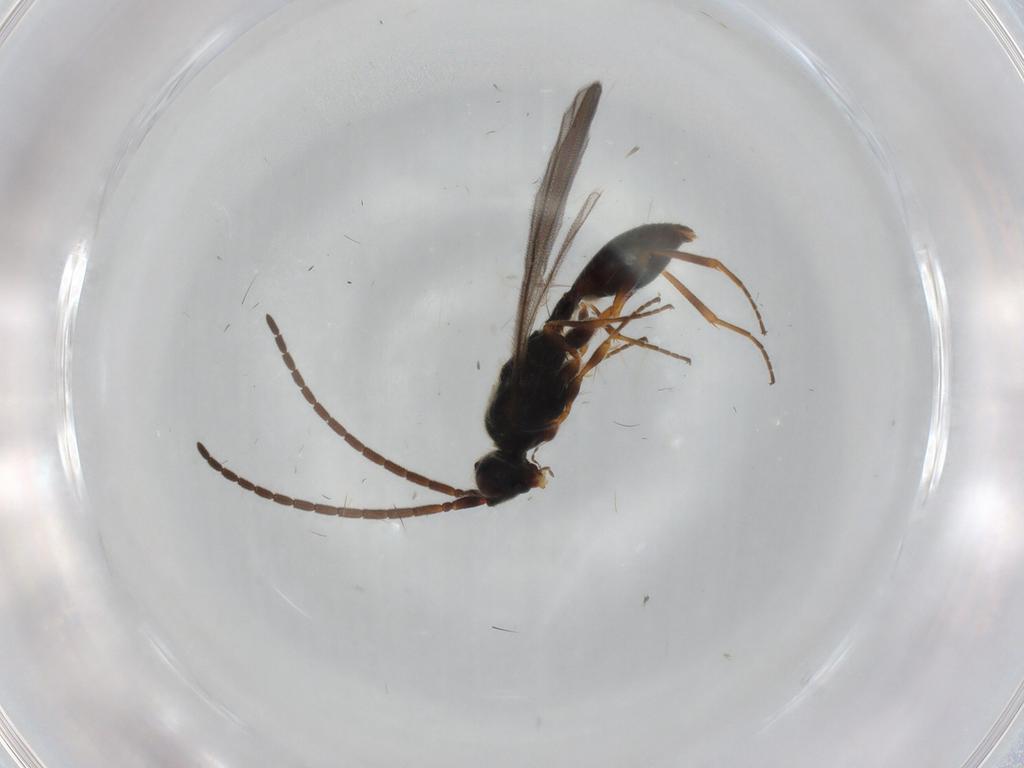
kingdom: Animalia
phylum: Arthropoda
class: Insecta
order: Hymenoptera
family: Diapriidae
